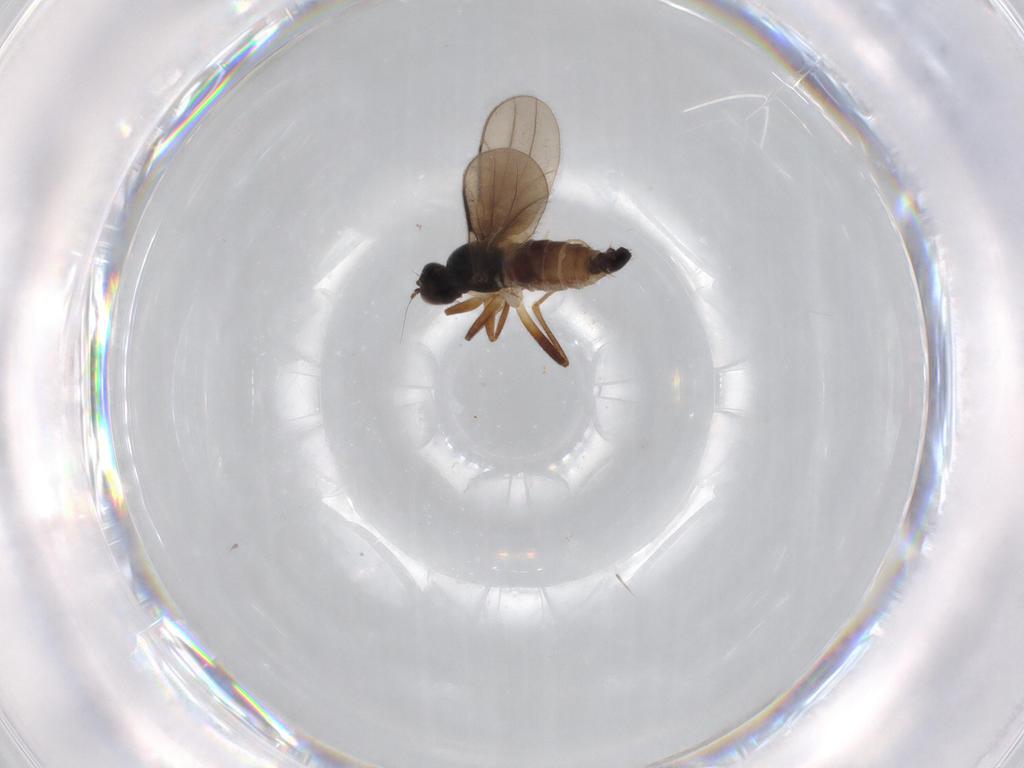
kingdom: Animalia
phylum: Arthropoda
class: Insecta
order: Diptera
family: Hybotidae
